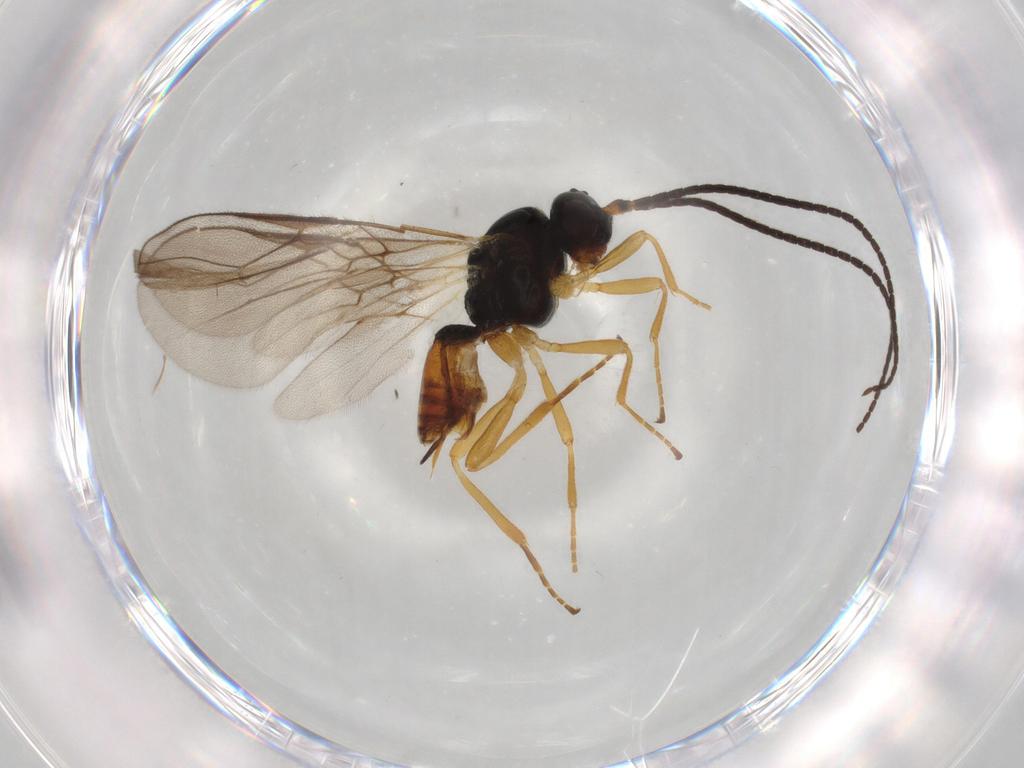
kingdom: Animalia
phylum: Arthropoda
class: Insecta
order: Hymenoptera
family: Braconidae
